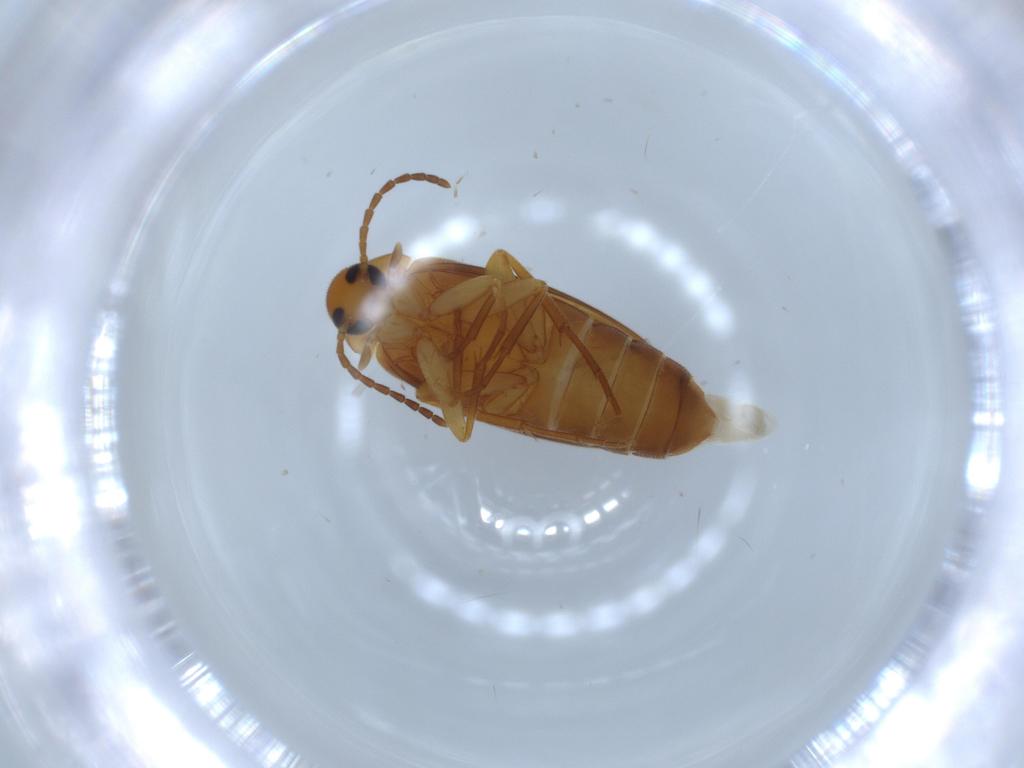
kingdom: Animalia
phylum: Arthropoda
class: Insecta
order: Coleoptera
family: Scraptiidae
